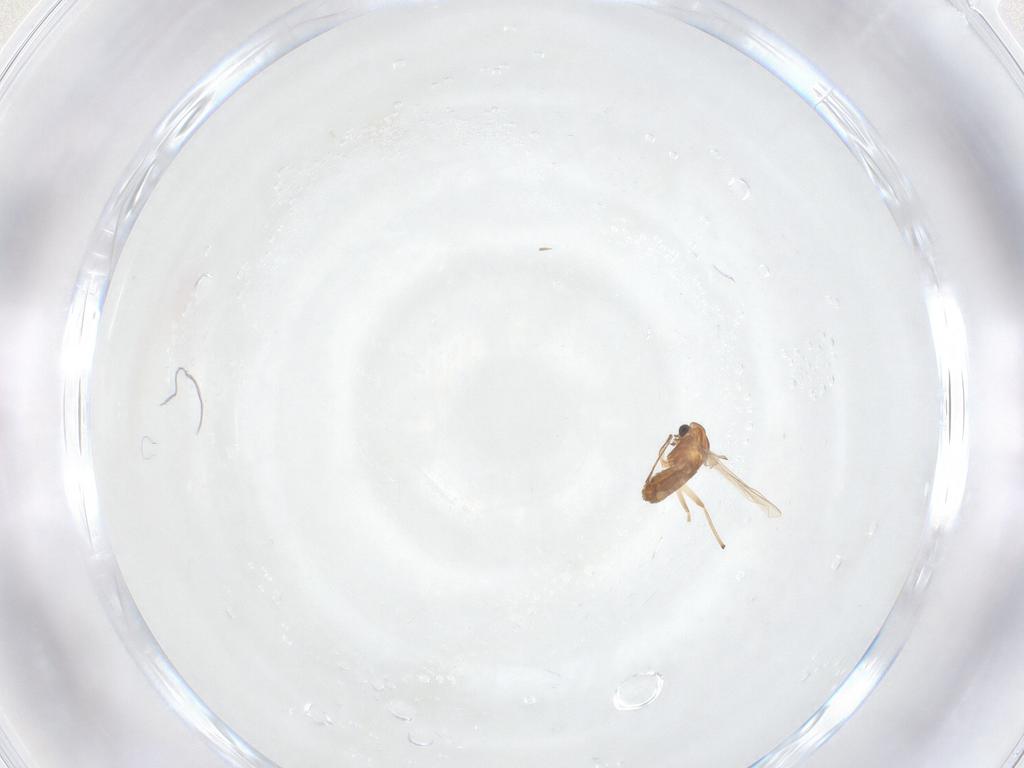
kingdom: Animalia
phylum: Arthropoda
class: Insecta
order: Diptera
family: Chironomidae
